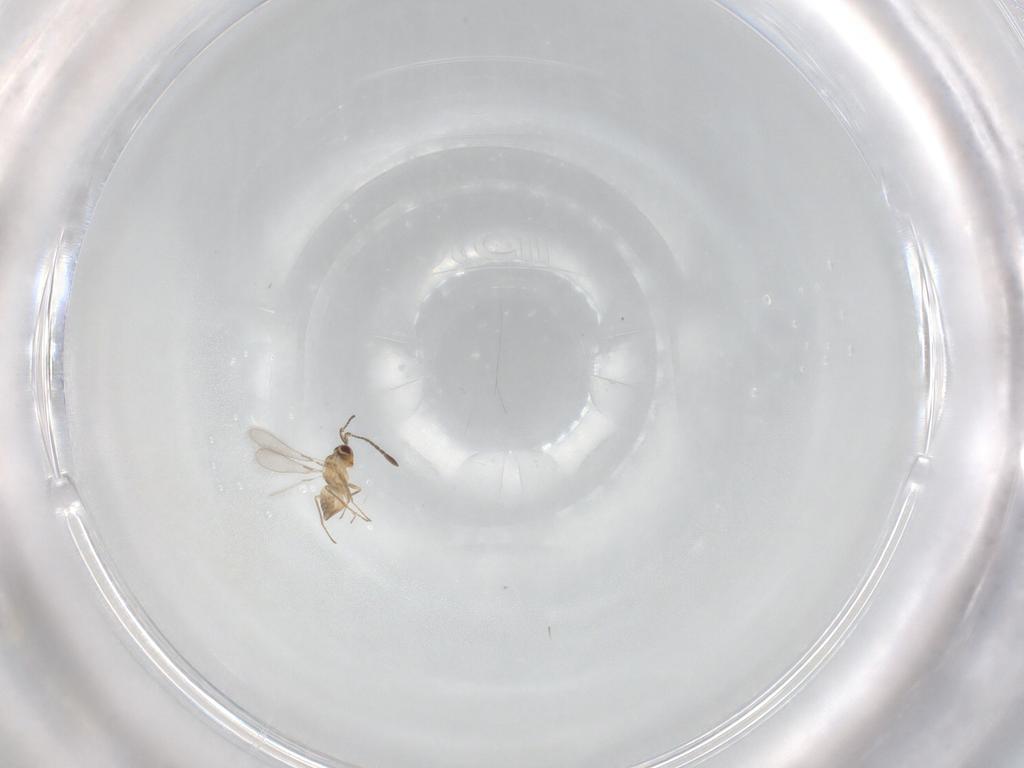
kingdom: Animalia
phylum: Arthropoda
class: Insecta
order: Hymenoptera
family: Mymaridae
